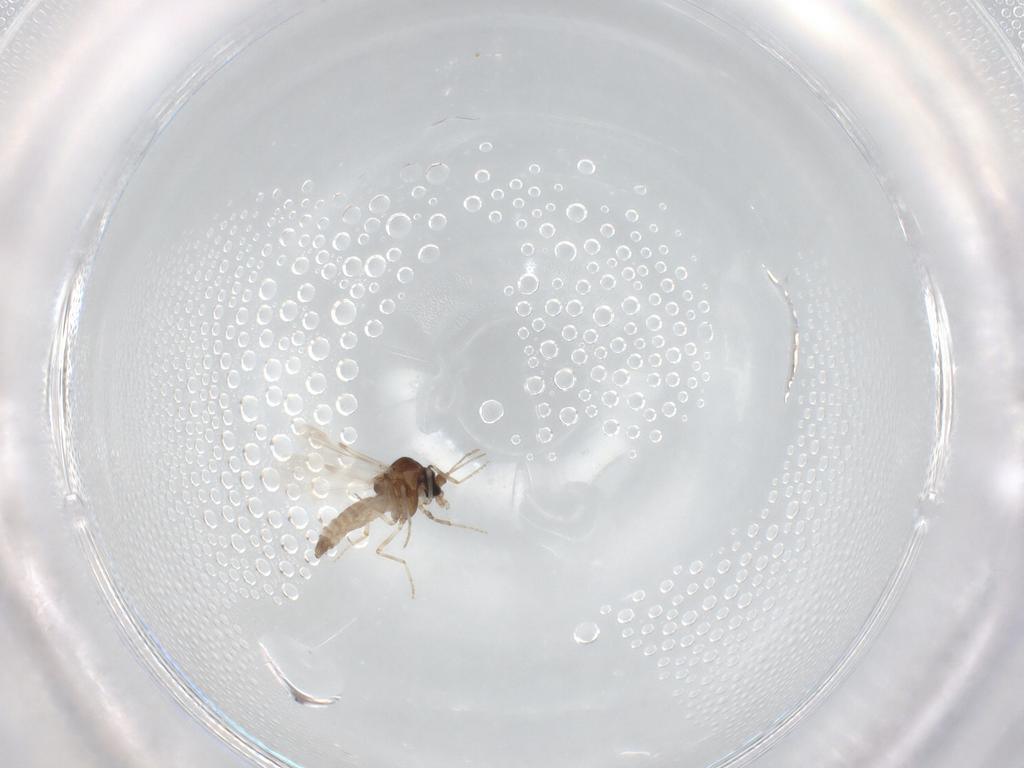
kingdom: Animalia
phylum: Arthropoda
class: Insecta
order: Diptera
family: Ceratopogonidae
